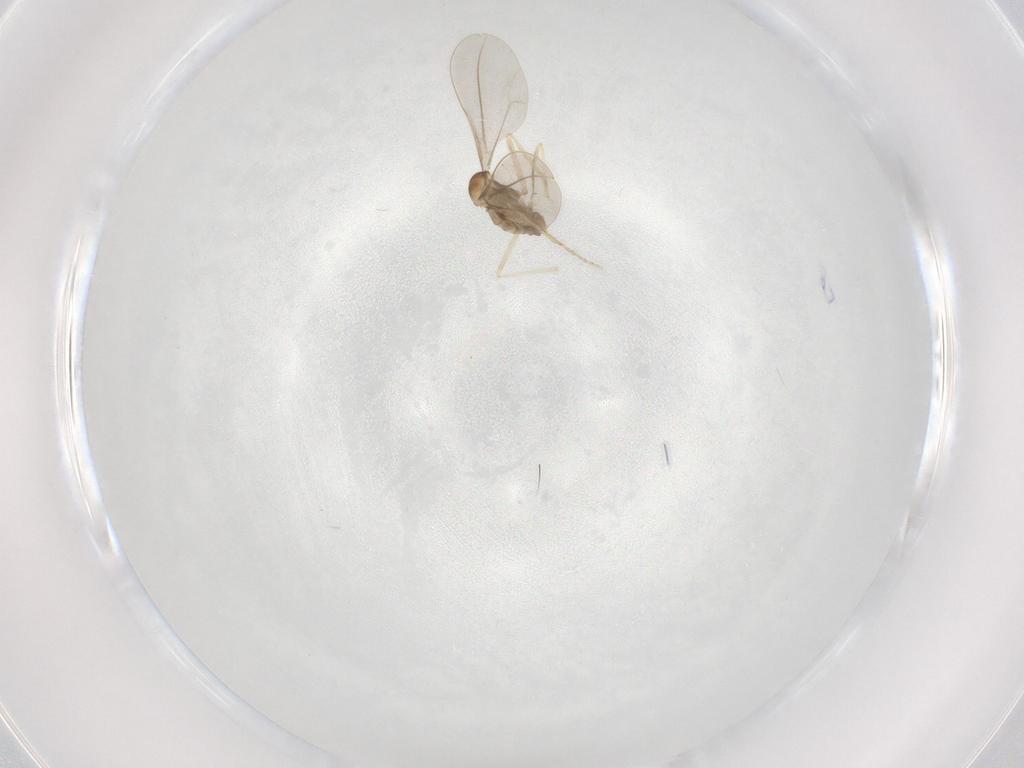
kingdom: Animalia
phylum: Arthropoda
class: Insecta
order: Diptera
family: Cecidomyiidae
